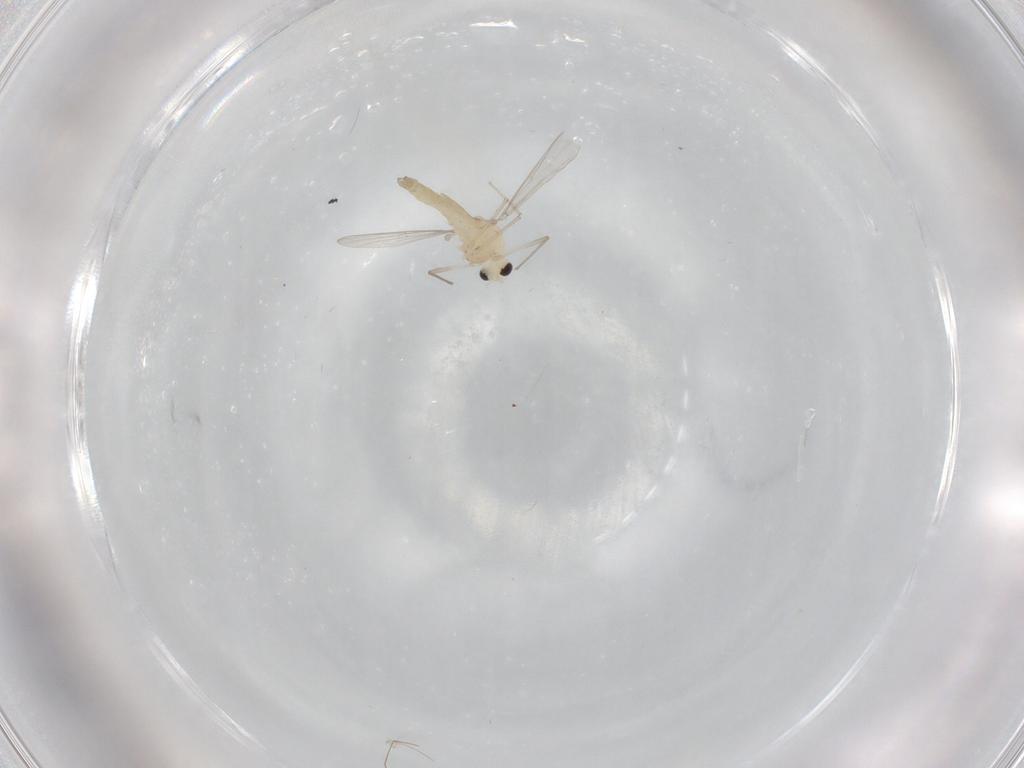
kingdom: Animalia
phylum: Arthropoda
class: Insecta
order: Diptera
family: Chironomidae
